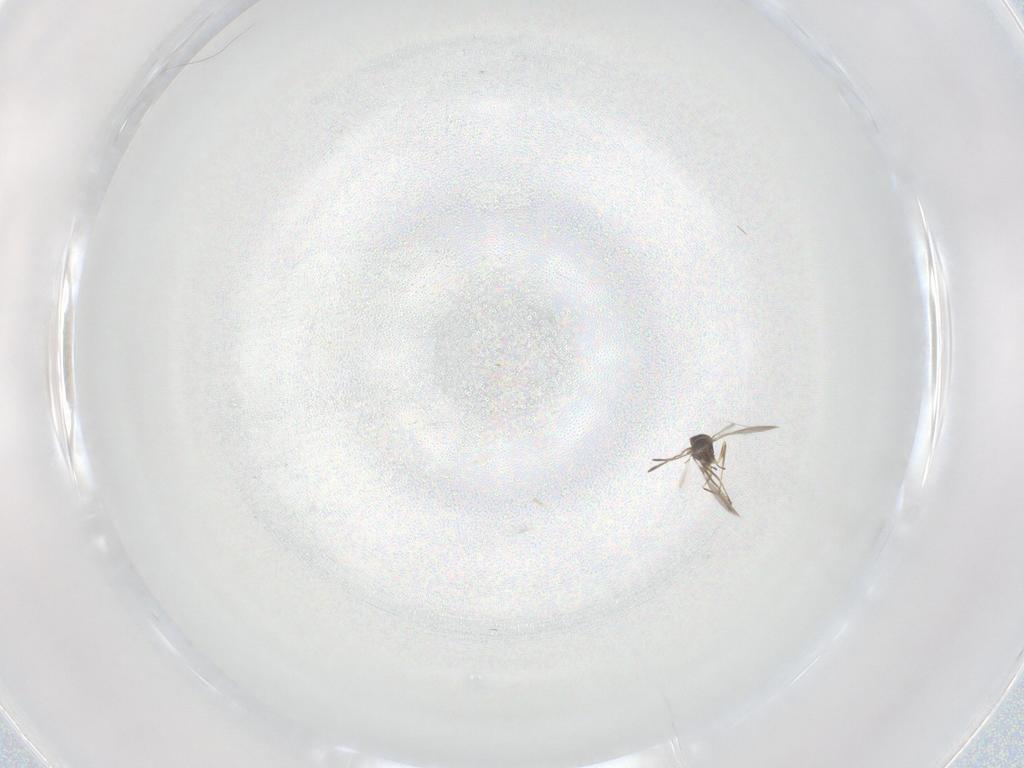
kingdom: Animalia
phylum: Arthropoda
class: Insecta
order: Hymenoptera
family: Mymaridae
